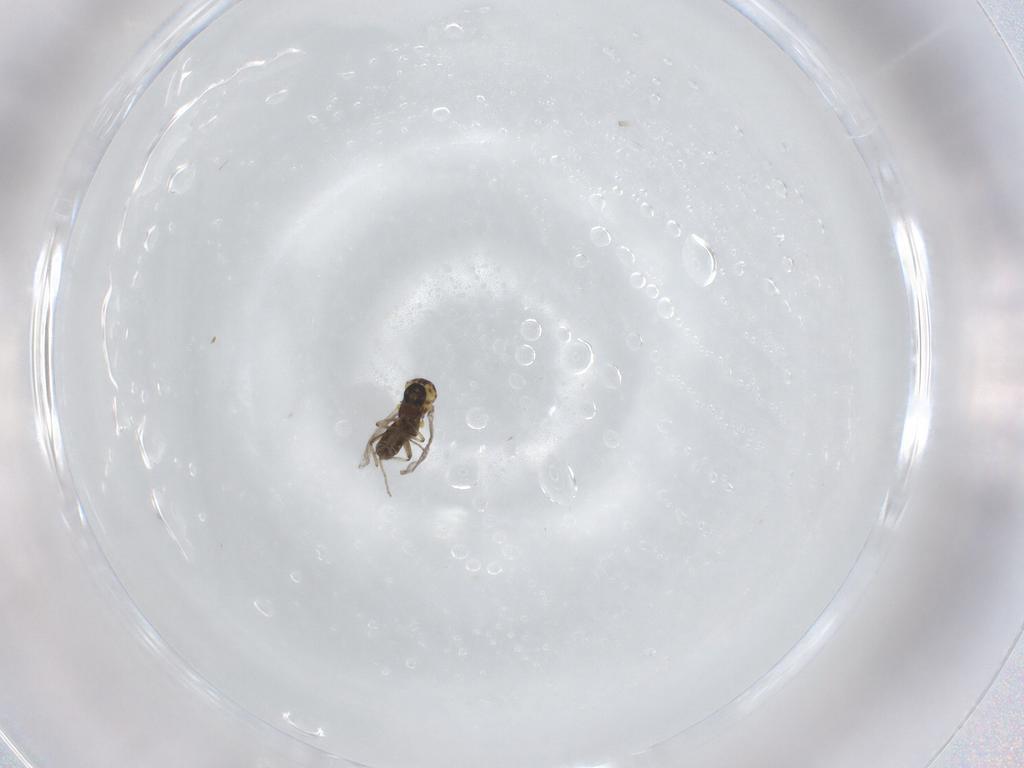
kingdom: Animalia
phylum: Arthropoda
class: Insecta
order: Diptera
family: Ceratopogonidae
